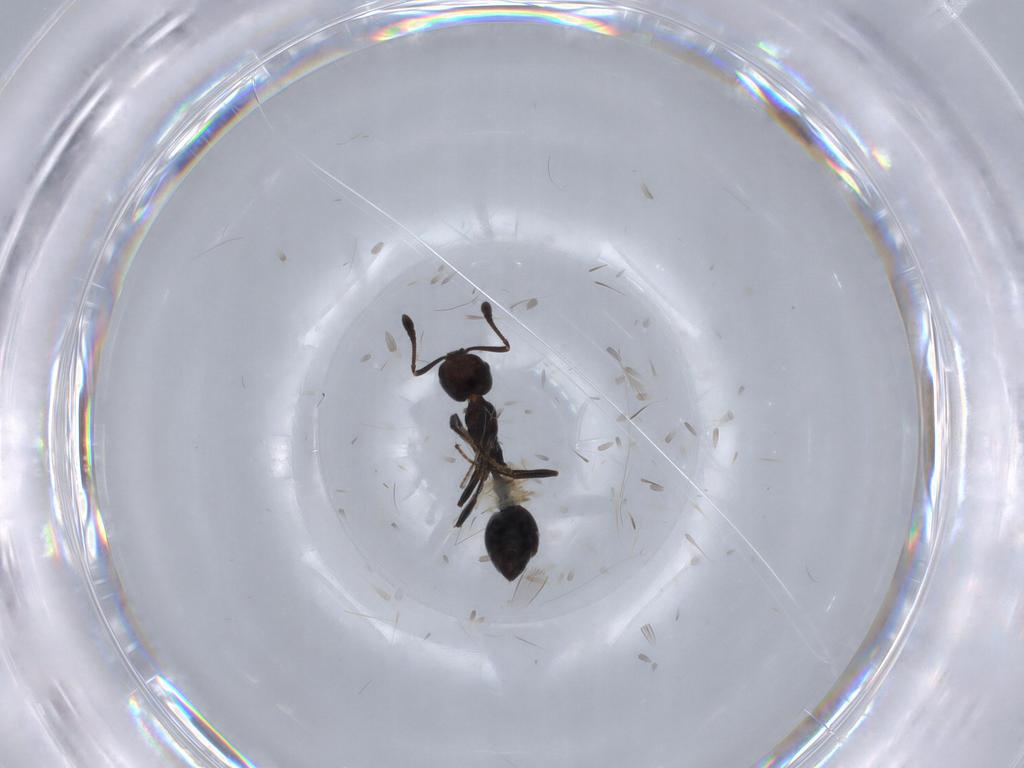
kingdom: Animalia
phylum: Arthropoda
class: Insecta
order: Hymenoptera
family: Formicidae
